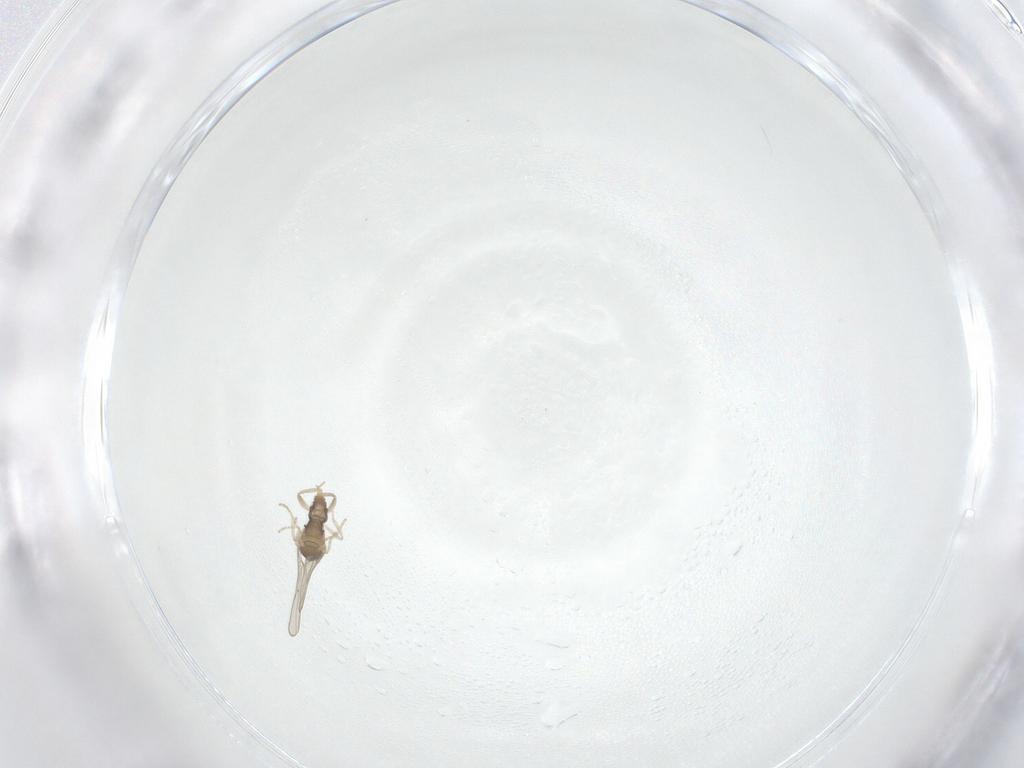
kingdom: Animalia
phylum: Arthropoda
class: Insecta
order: Diptera
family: Cecidomyiidae
